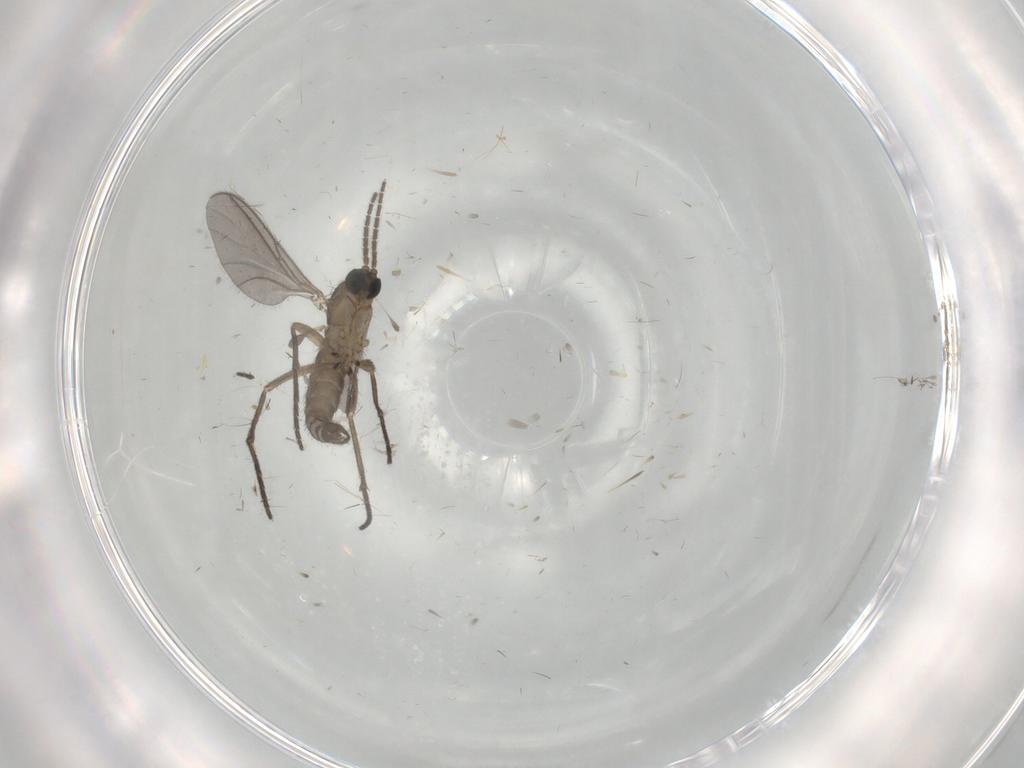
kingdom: Animalia
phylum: Arthropoda
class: Insecta
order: Diptera
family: Sciaridae
